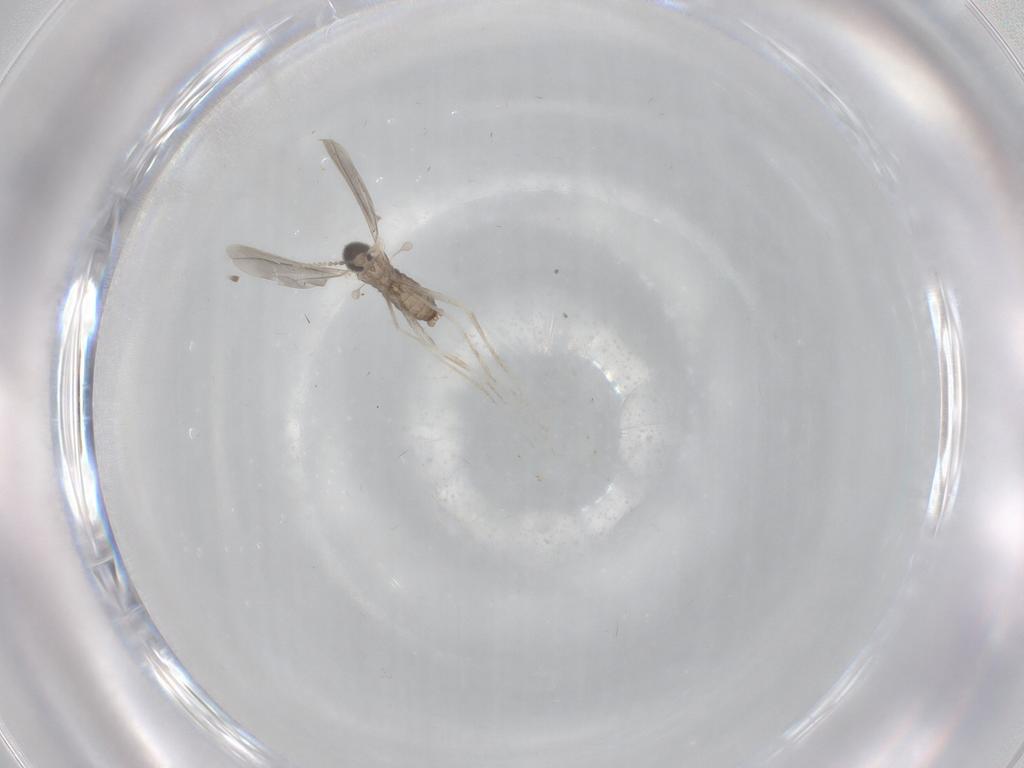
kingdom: Animalia
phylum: Arthropoda
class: Insecta
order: Diptera
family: Cecidomyiidae
